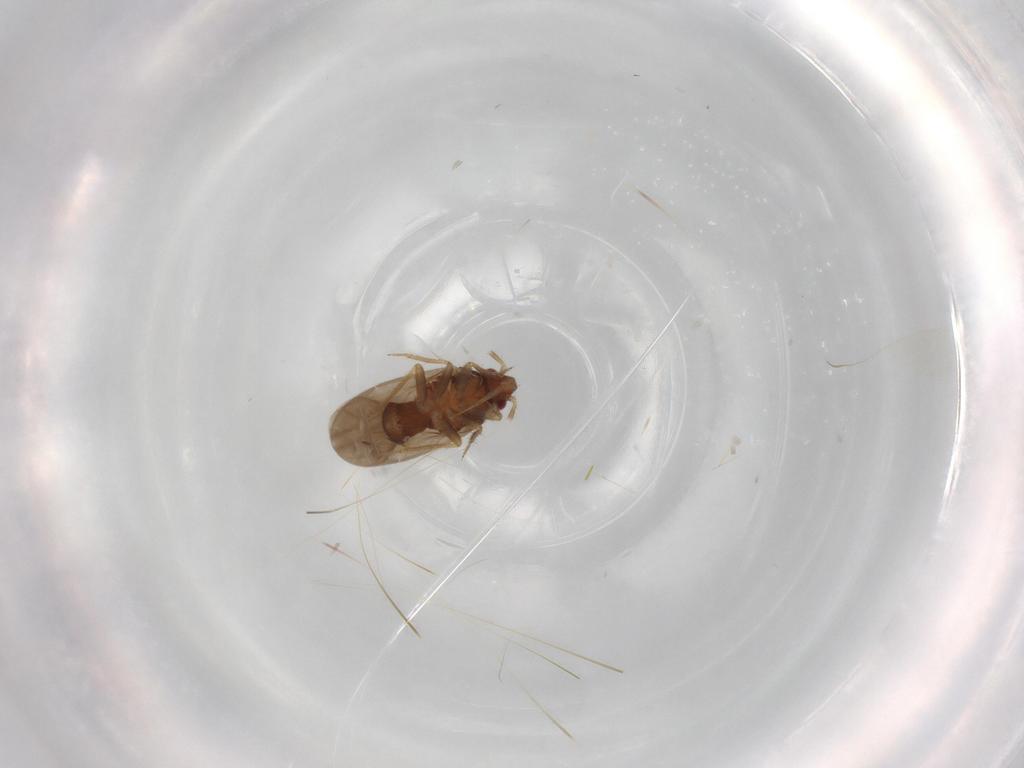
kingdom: Animalia
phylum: Arthropoda
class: Insecta
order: Hemiptera
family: Ceratocombidae
